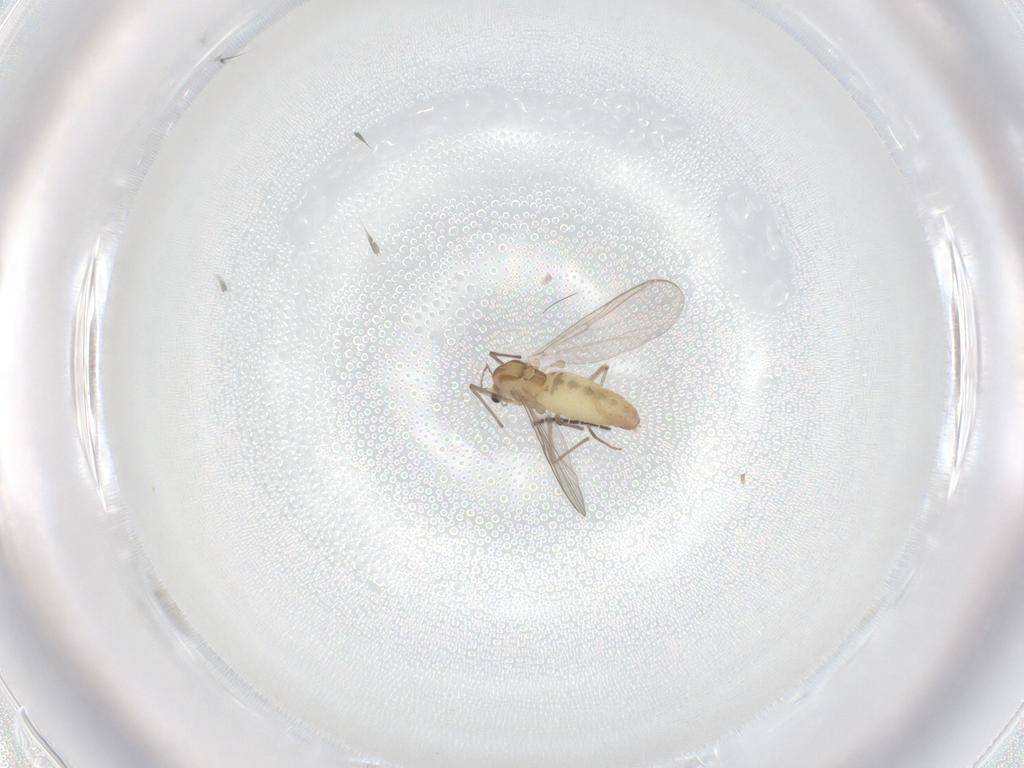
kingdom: Animalia
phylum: Arthropoda
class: Insecta
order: Diptera
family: Chironomidae
